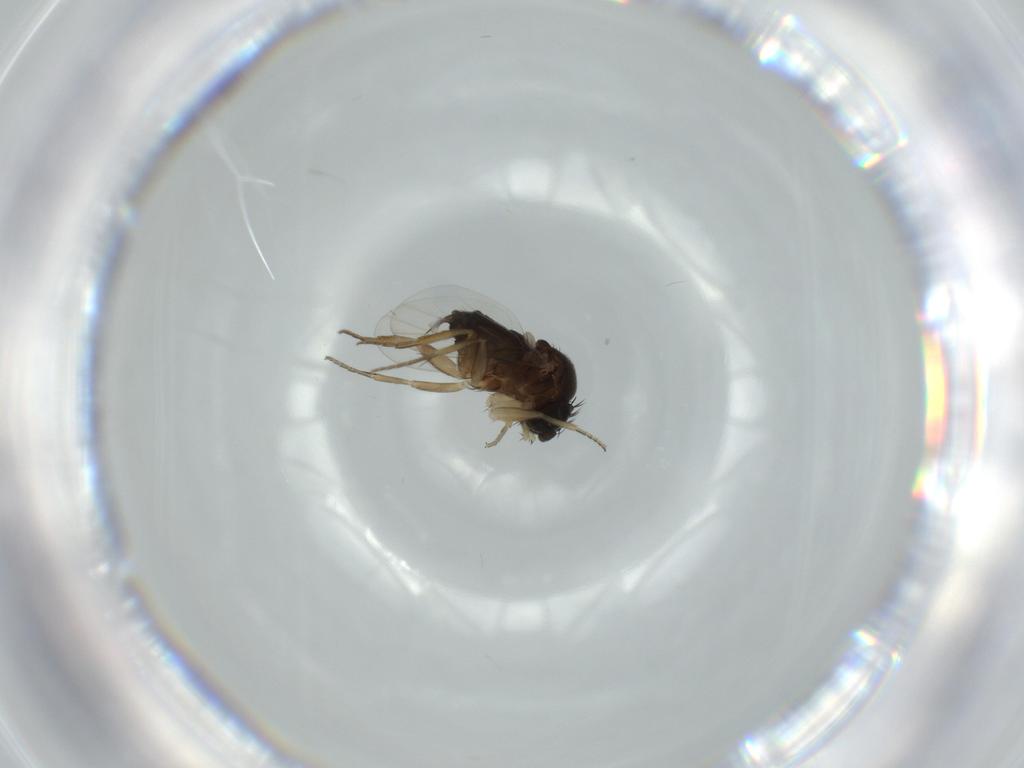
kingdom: Animalia
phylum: Arthropoda
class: Insecta
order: Diptera
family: Phoridae
